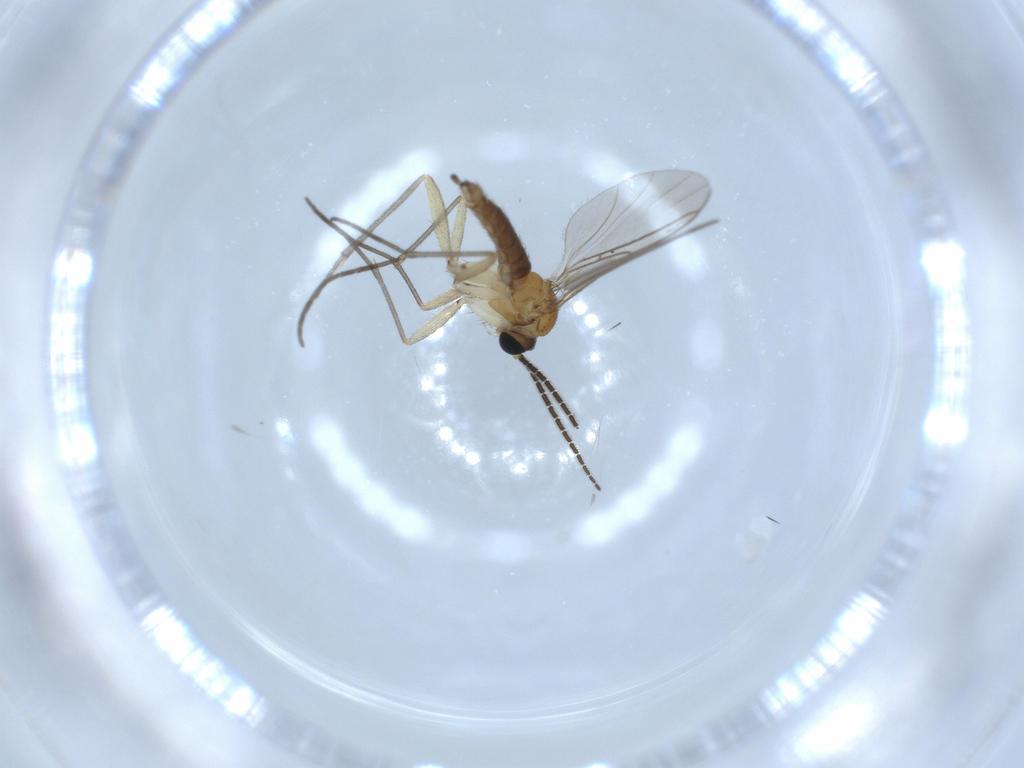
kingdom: Animalia
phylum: Arthropoda
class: Insecta
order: Diptera
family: Sciaridae
